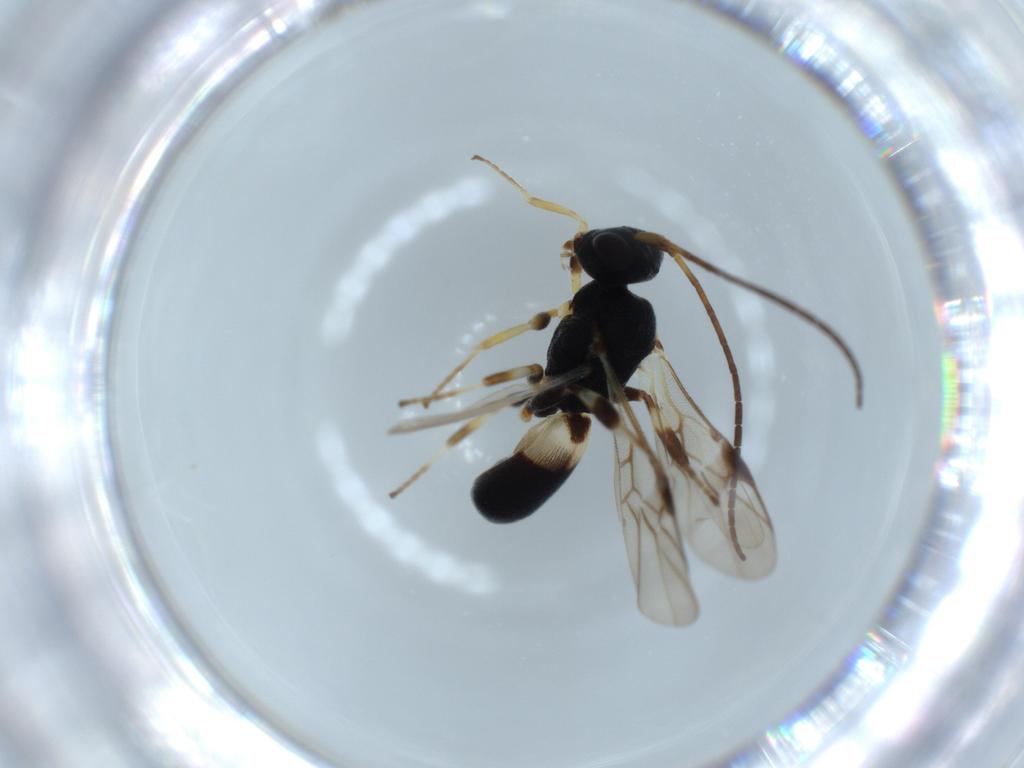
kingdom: Animalia
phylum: Arthropoda
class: Insecta
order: Hymenoptera
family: Braconidae
